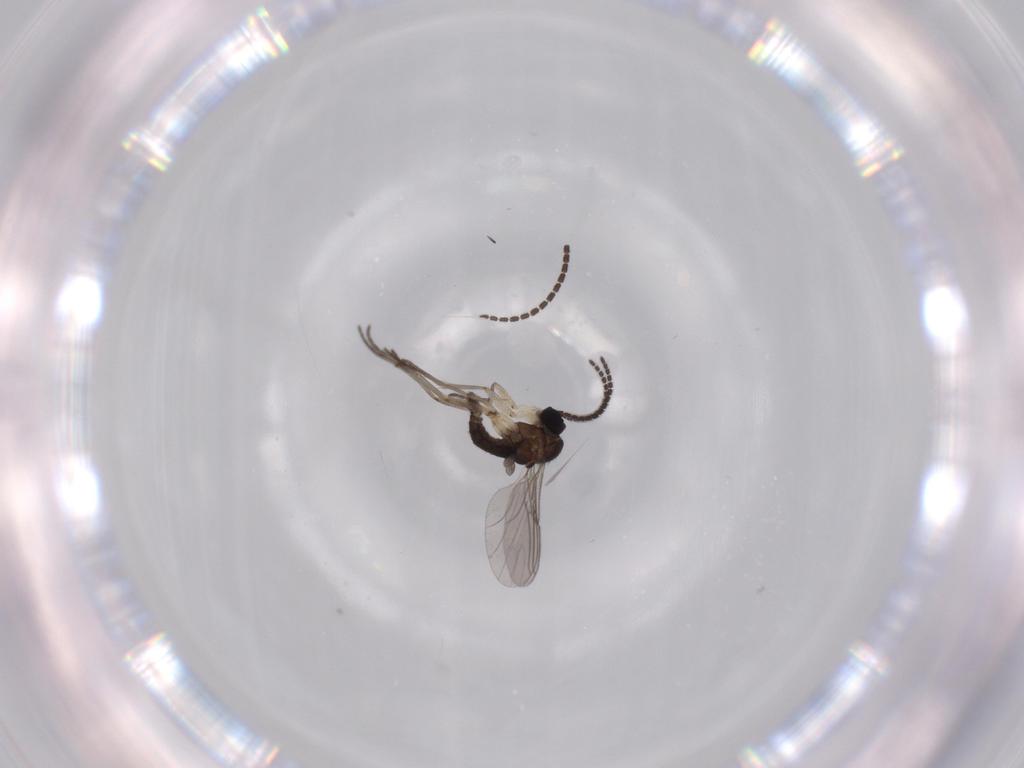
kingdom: Animalia
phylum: Arthropoda
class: Insecta
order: Diptera
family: Sciaridae
